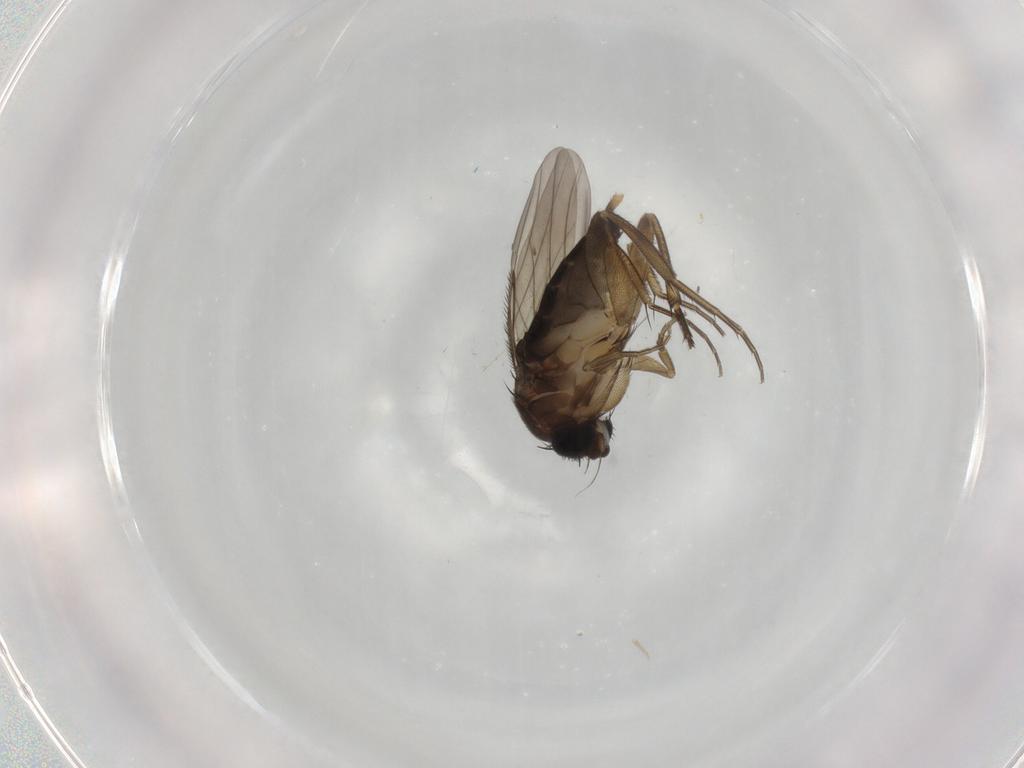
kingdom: Animalia
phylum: Arthropoda
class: Insecta
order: Diptera
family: Phoridae
